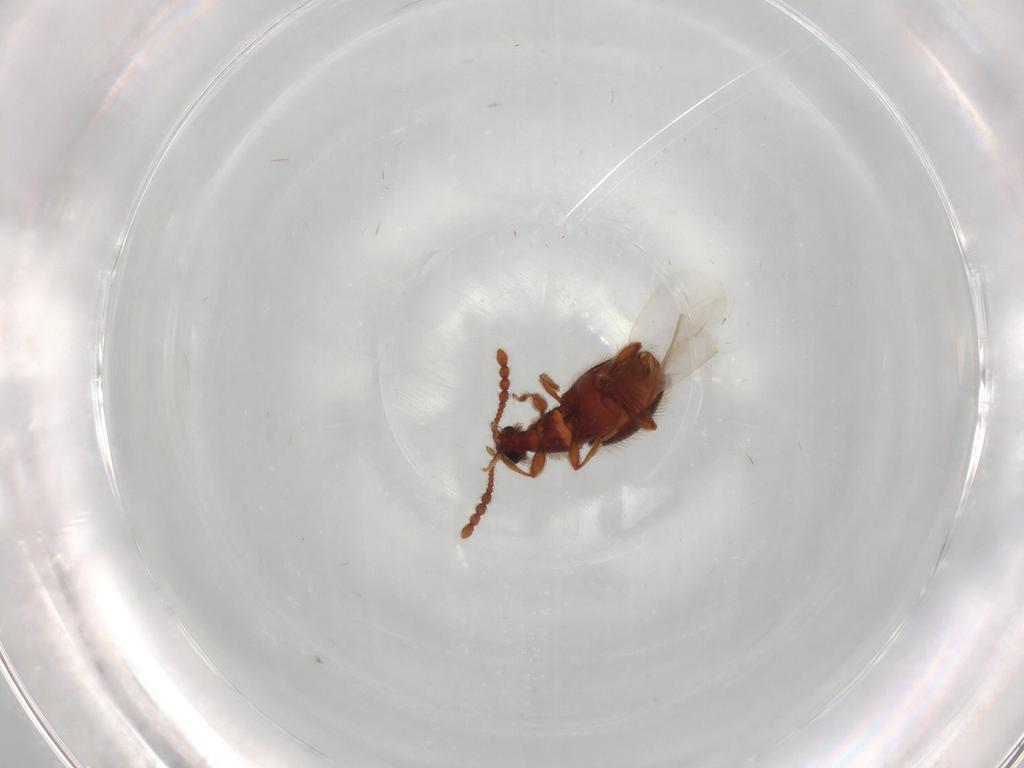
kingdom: Animalia
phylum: Arthropoda
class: Insecta
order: Coleoptera
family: Staphylinidae
